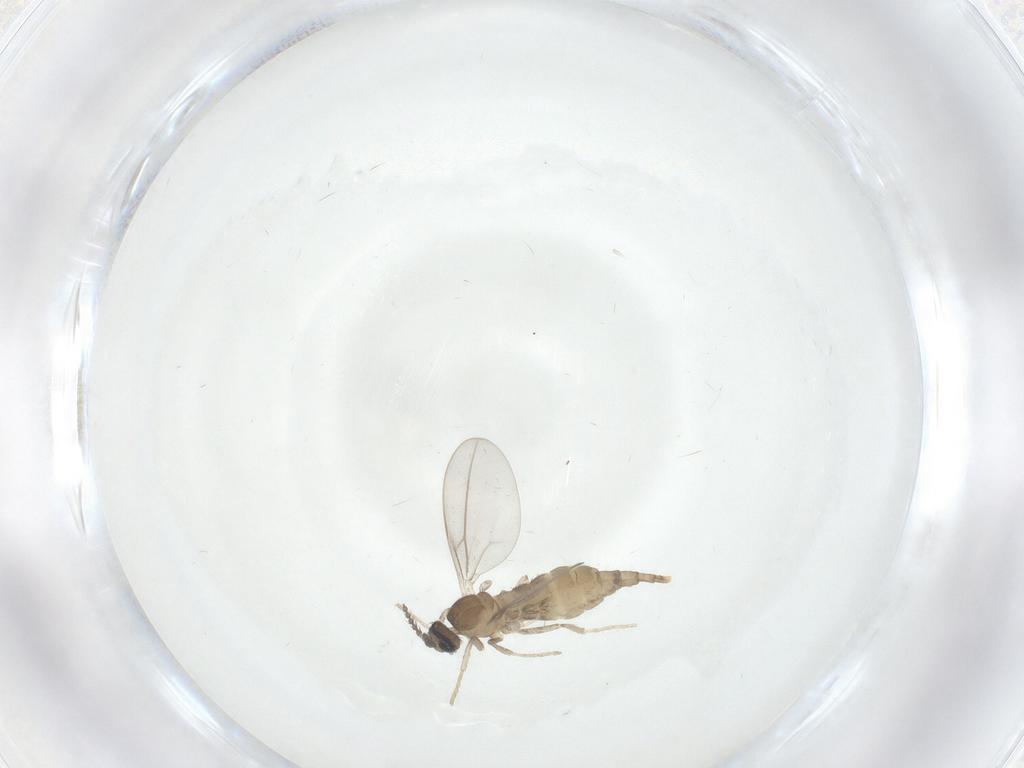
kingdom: Animalia
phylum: Arthropoda
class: Insecta
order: Diptera
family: Cecidomyiidae
